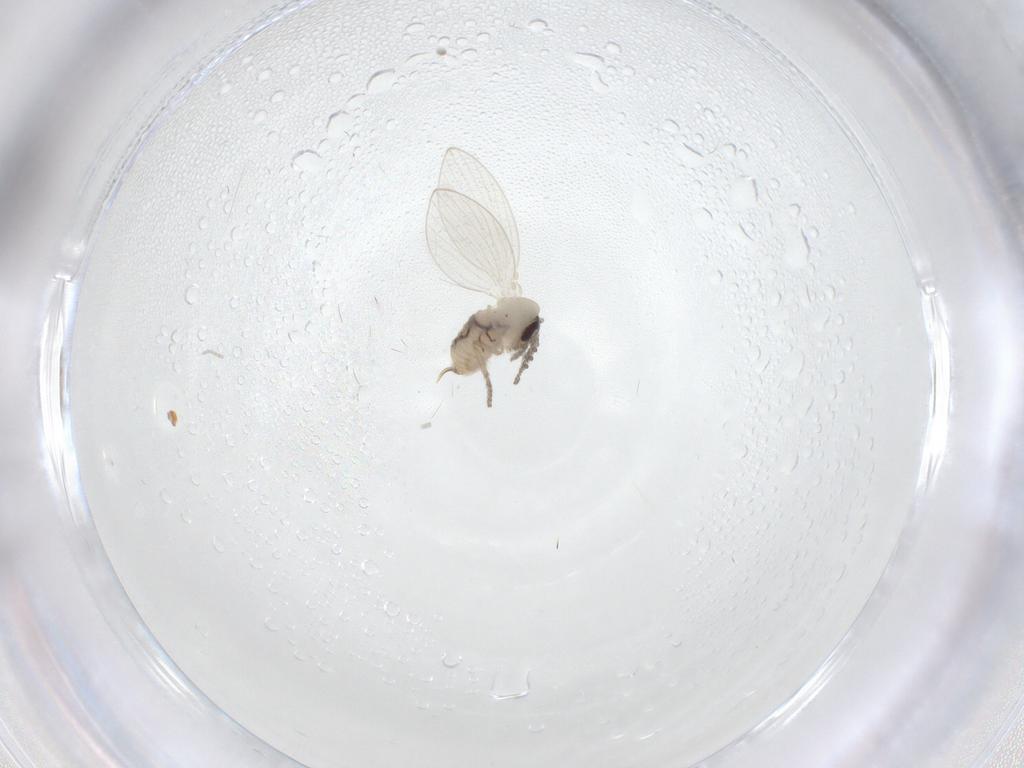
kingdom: Animalia
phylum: Arthropoda
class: Insecta
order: Diptera
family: Psychodidae
